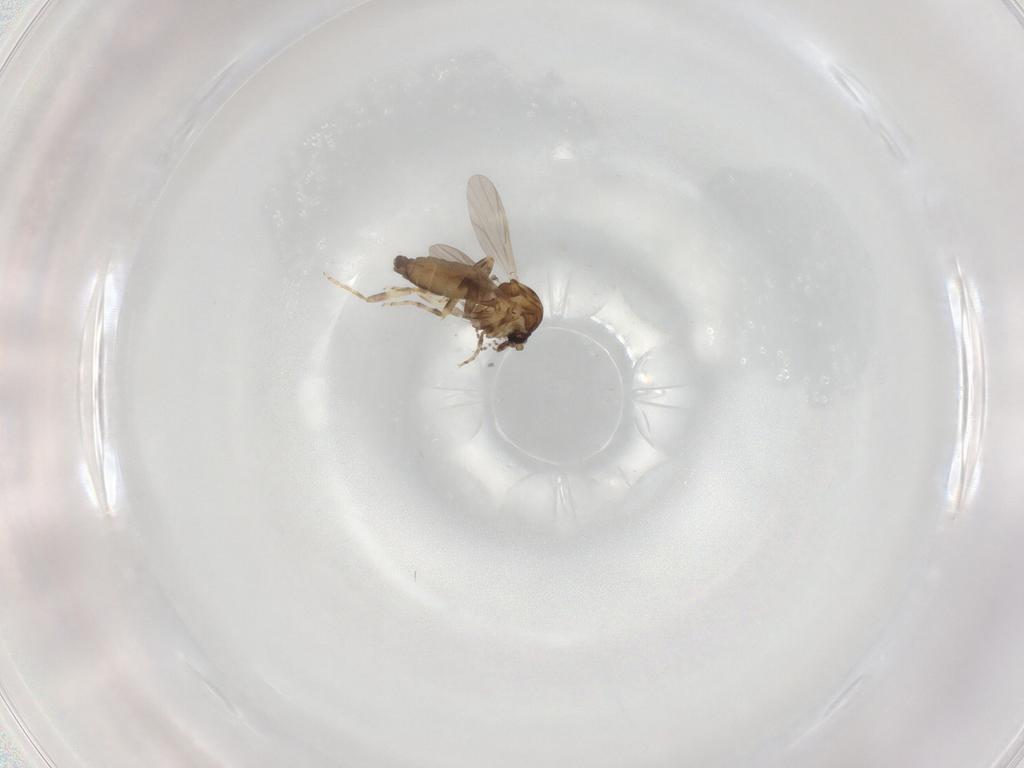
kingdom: Animalia
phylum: Arthropoda
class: Insecta
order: Diptera
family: Ceratopogonidae
